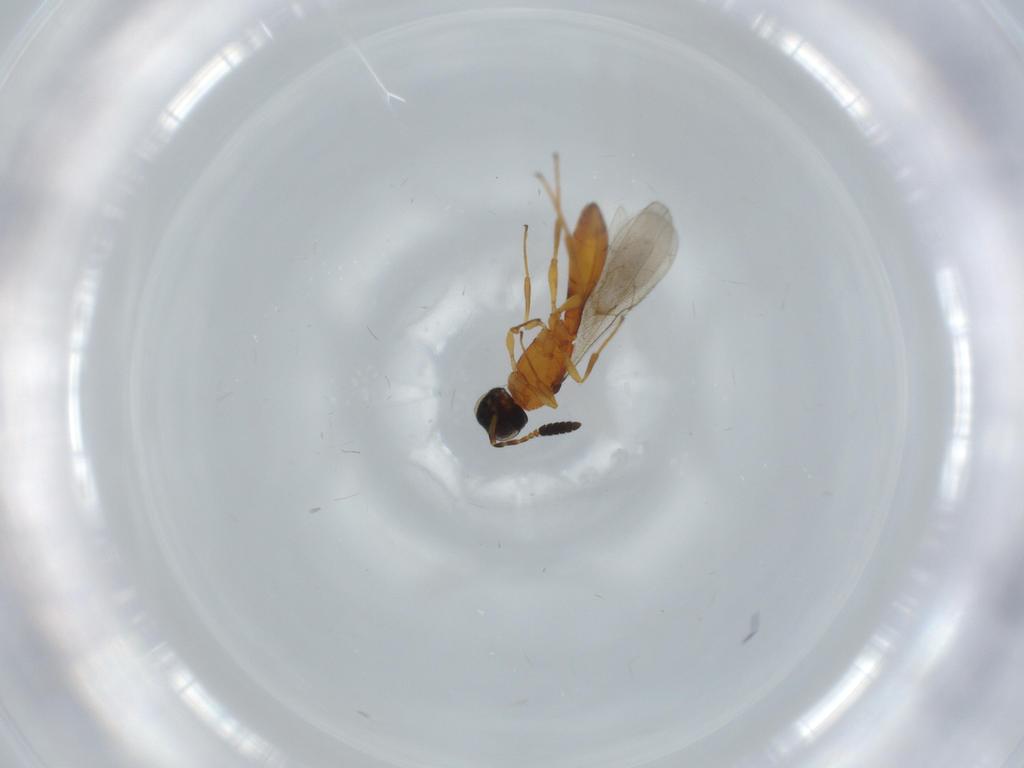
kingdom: Animalia
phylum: Arthropoda
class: Insecta
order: Hymenoptera
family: Scelionidae
